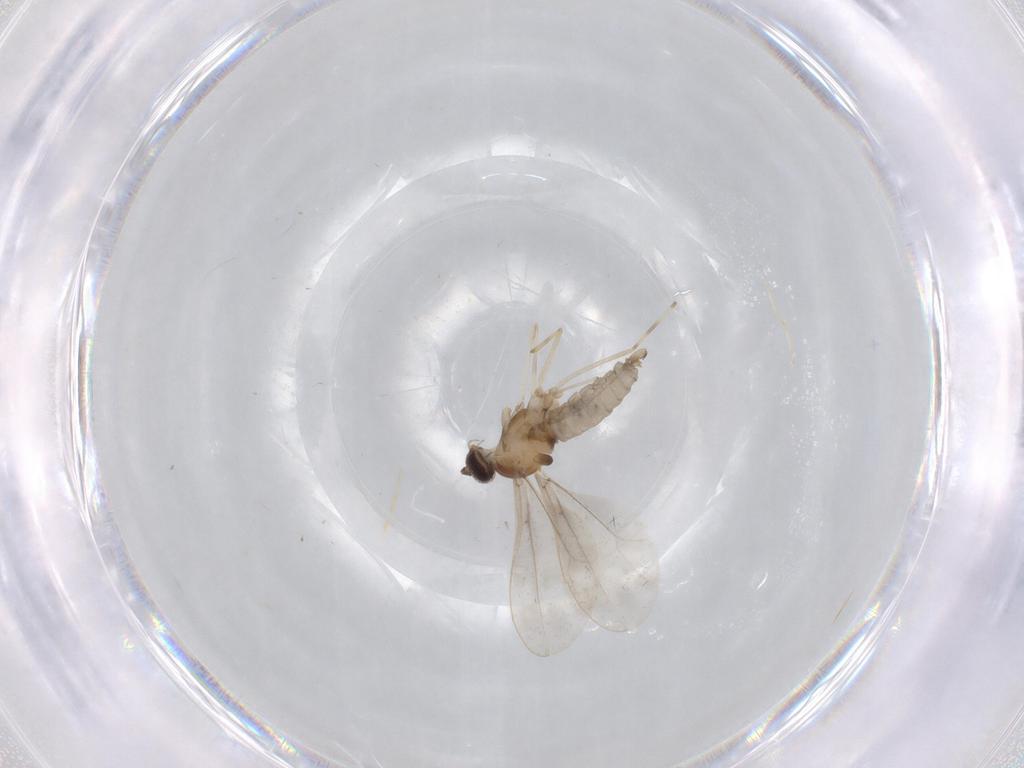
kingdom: Animalia
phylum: Arthropoda
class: Insecta
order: Diptera
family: Cecidomyiidae
